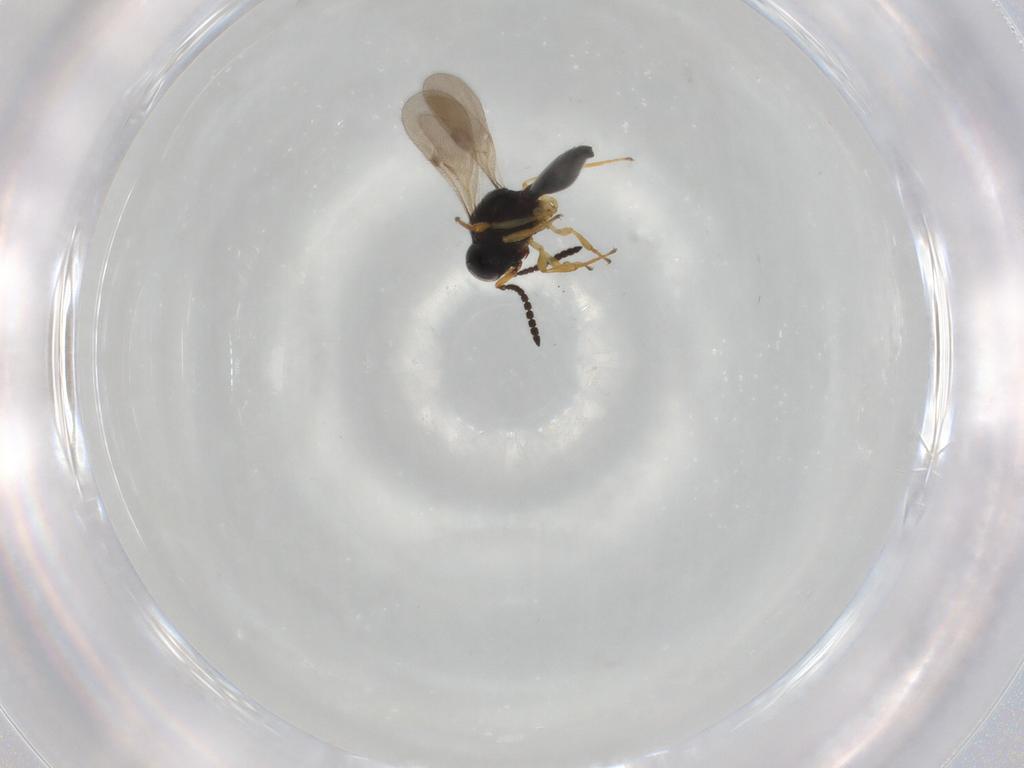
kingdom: Animalia
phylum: Arthropoda
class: Insecta
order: Hymenoptera
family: Scelionidae
